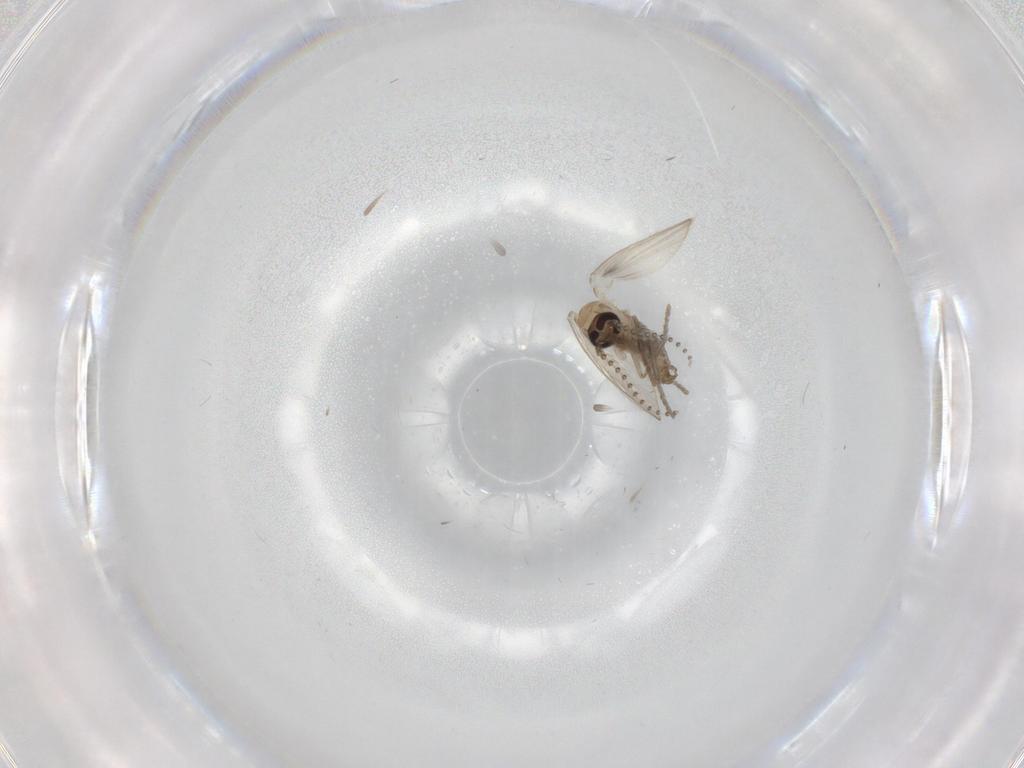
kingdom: Animalia
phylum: Arthropoda
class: Insecta
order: Diptera
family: Psychodidae
